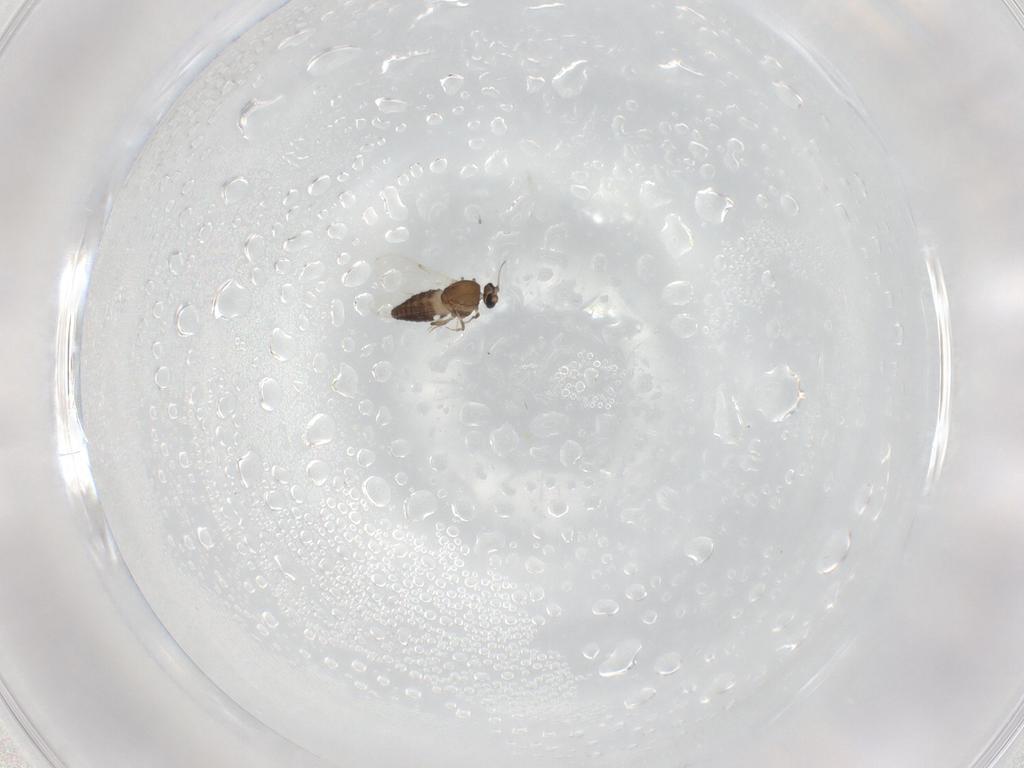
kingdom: Animalia
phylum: Arthropoda
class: Insecta
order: Diptera
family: Ceratopogonidae
